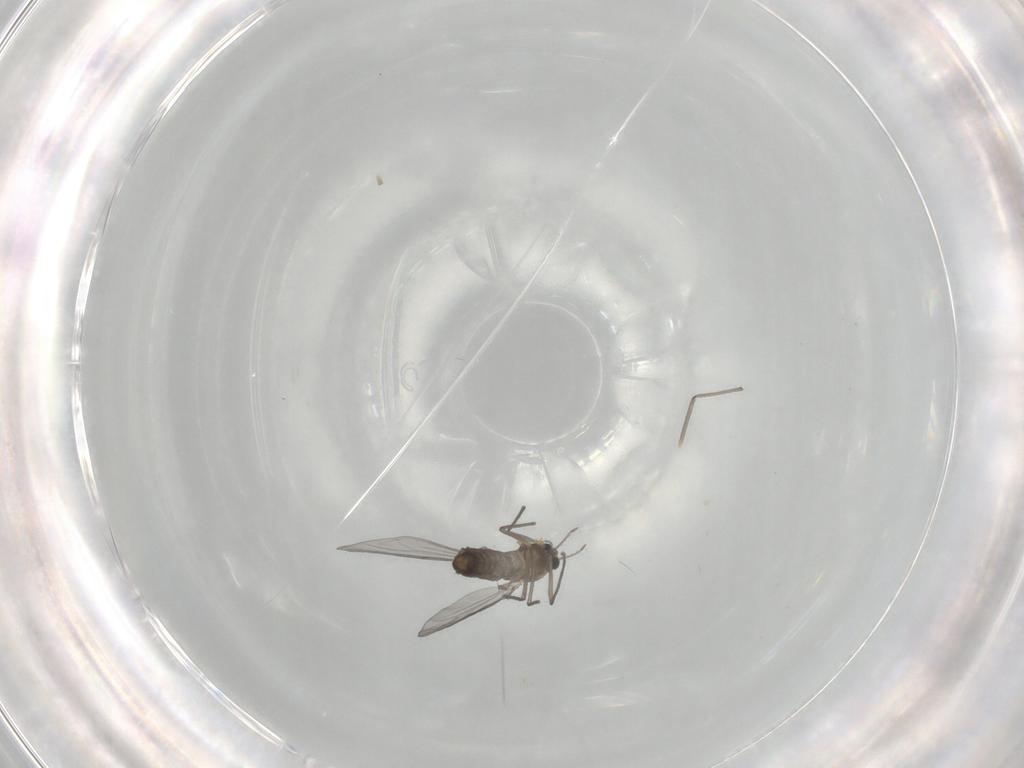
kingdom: Animalia
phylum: Arthropoda
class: Insecta
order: Diptera
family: Chironomidae
